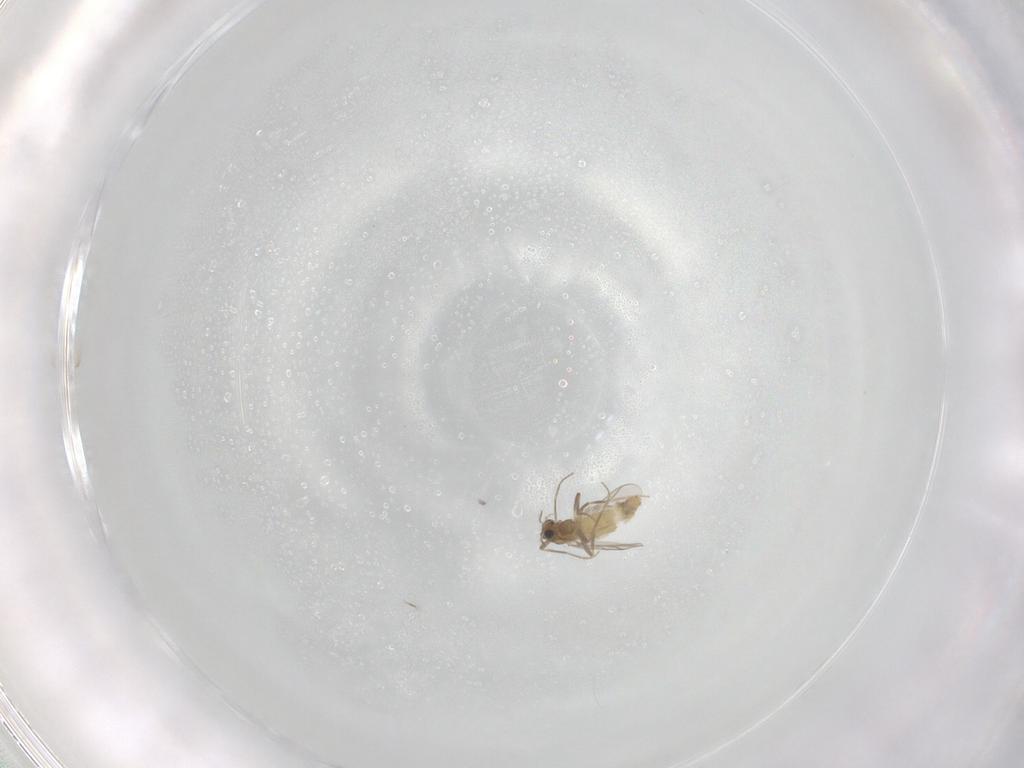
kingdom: Animalia
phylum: Arthropoda
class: Insecta
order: Diptera
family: Chironomidae
